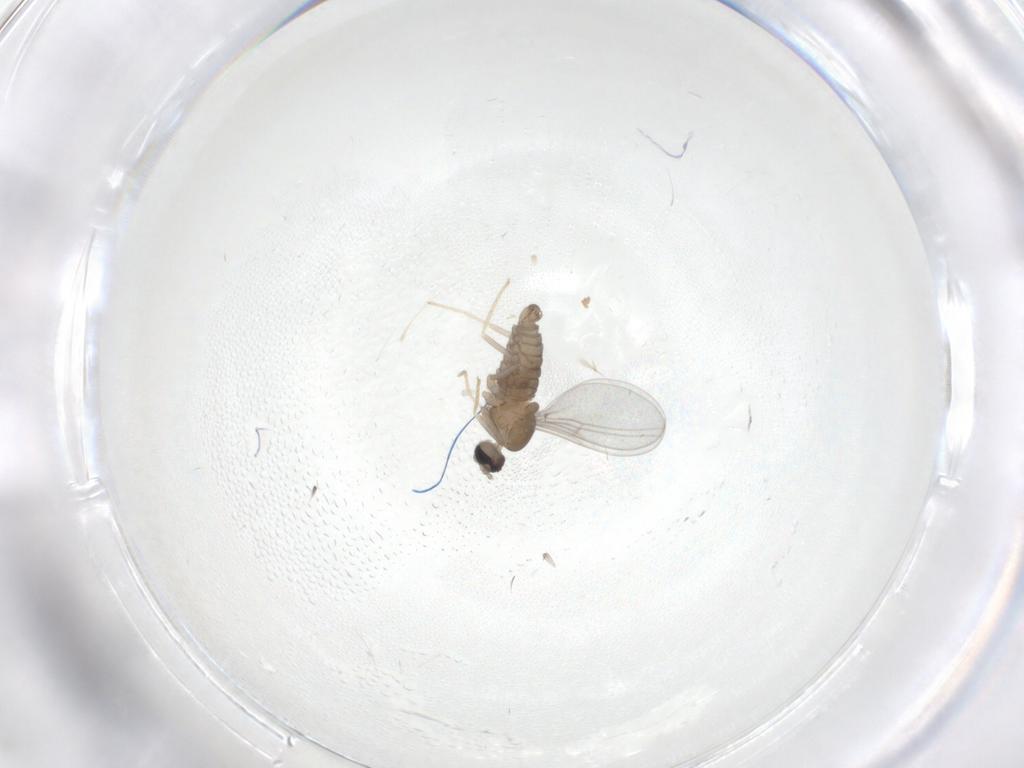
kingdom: Animalia
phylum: Arthropoda
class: Insecta
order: Diptera
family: Cecidomyiidae
